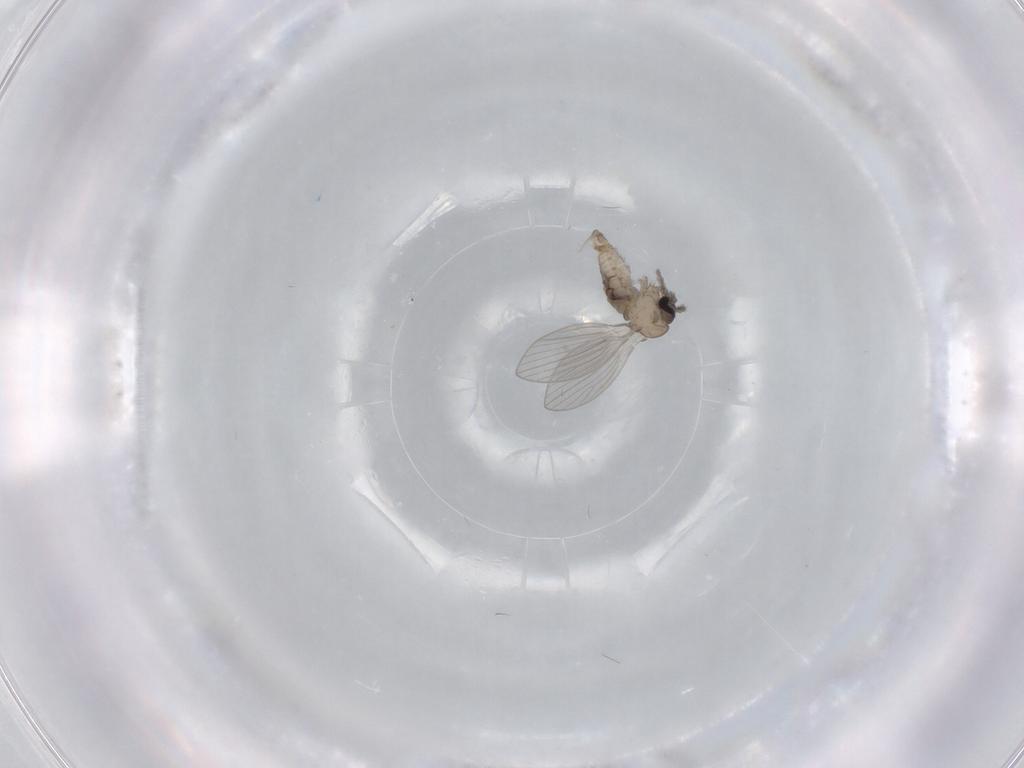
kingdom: Animalia
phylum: Arthropoda
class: Insecta
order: Diptera
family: Psychodidae
